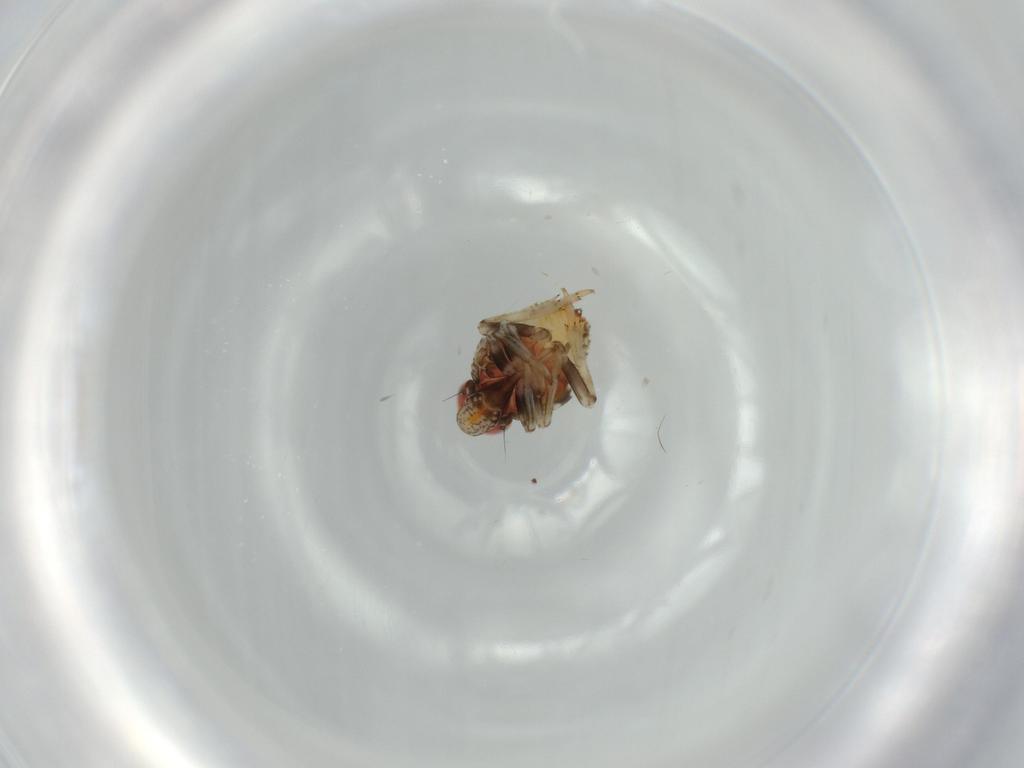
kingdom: Animalia
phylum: Arthropoda
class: Insecta
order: Hemiptera
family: Issidae
